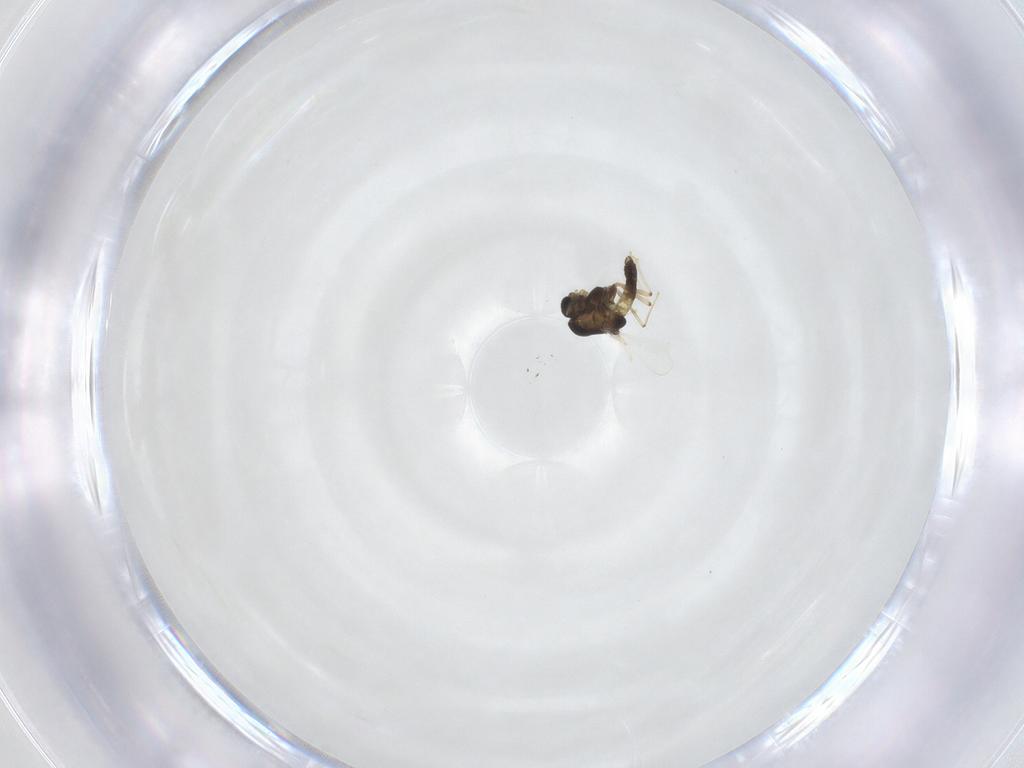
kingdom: Animalia
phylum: Arthropoda
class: Insecta
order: Diptera
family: Chironomidae
